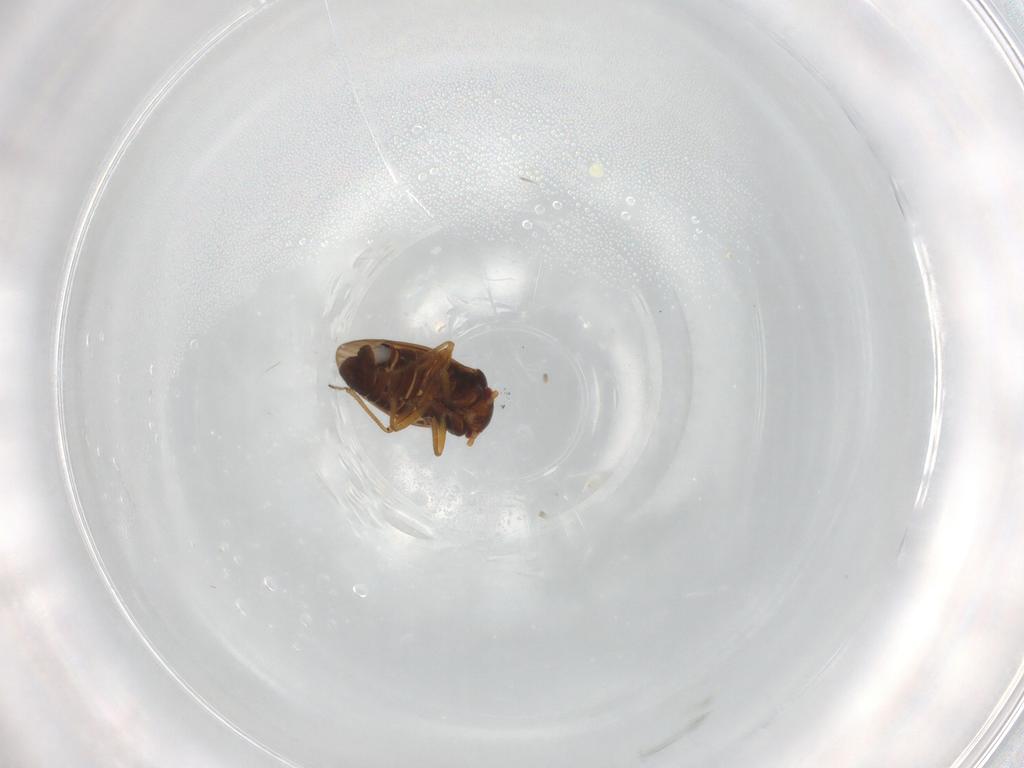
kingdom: Animalia
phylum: Arthropoda
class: Insecta
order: Hemiptera
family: Schizopteridae
